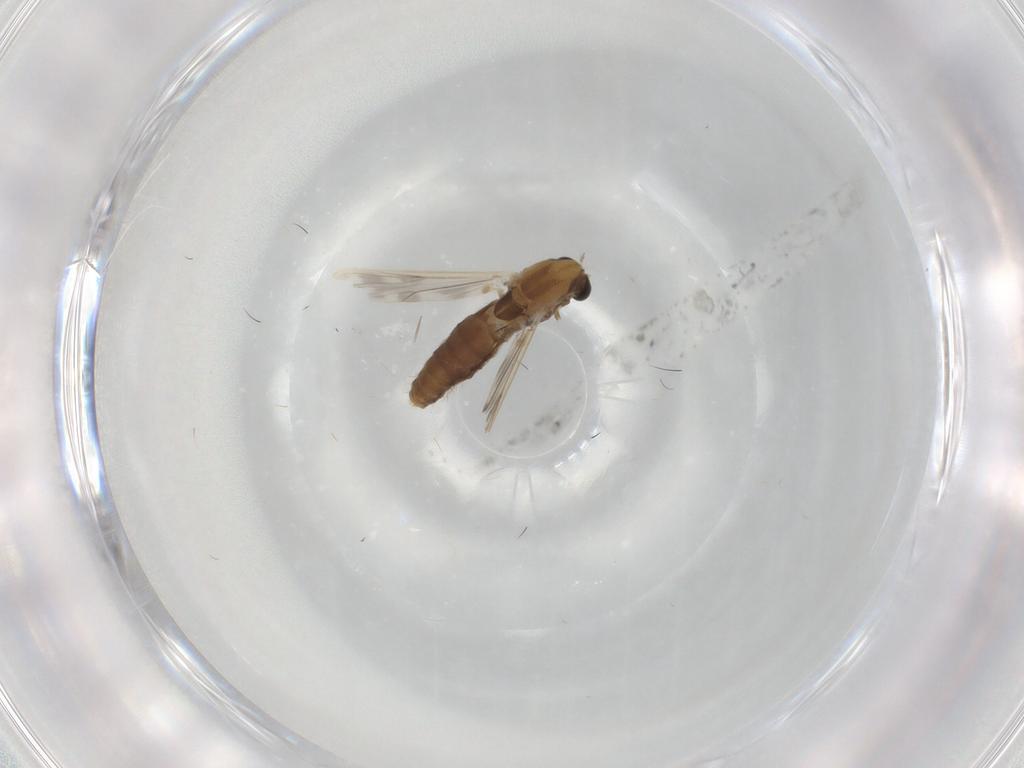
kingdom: Animalia
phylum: Arthropoda
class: Insecta
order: Diptera
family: Chironomidae
